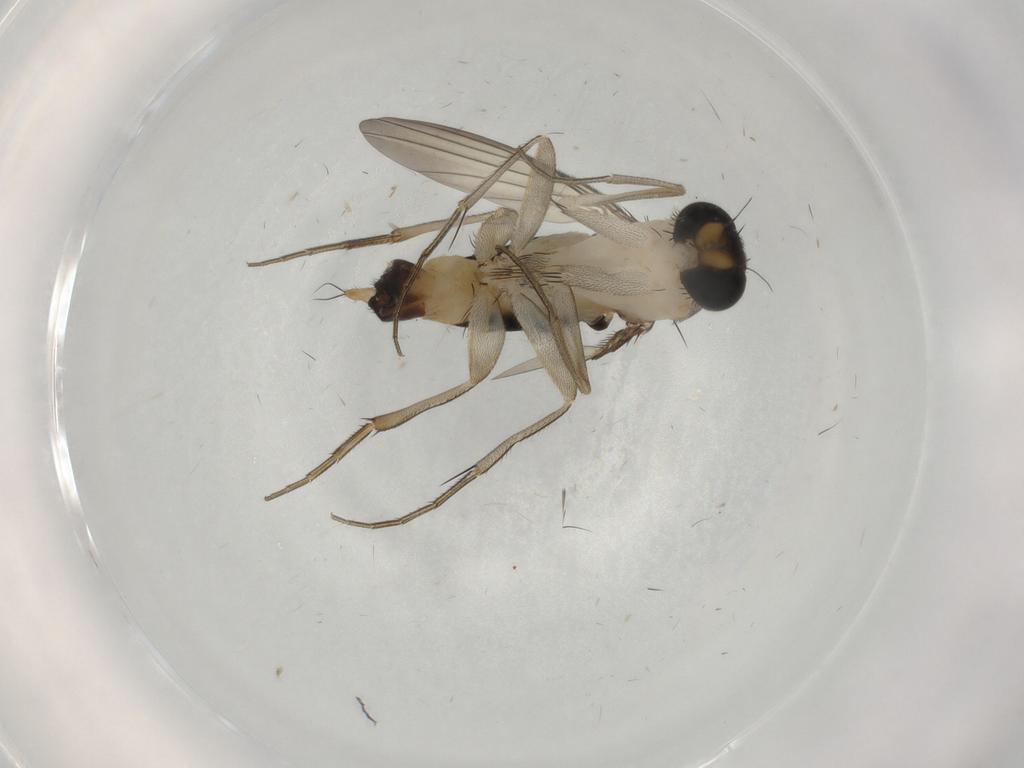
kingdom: Animalia
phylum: Arthropoda
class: Insecta
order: Diptera
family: Phoridae
